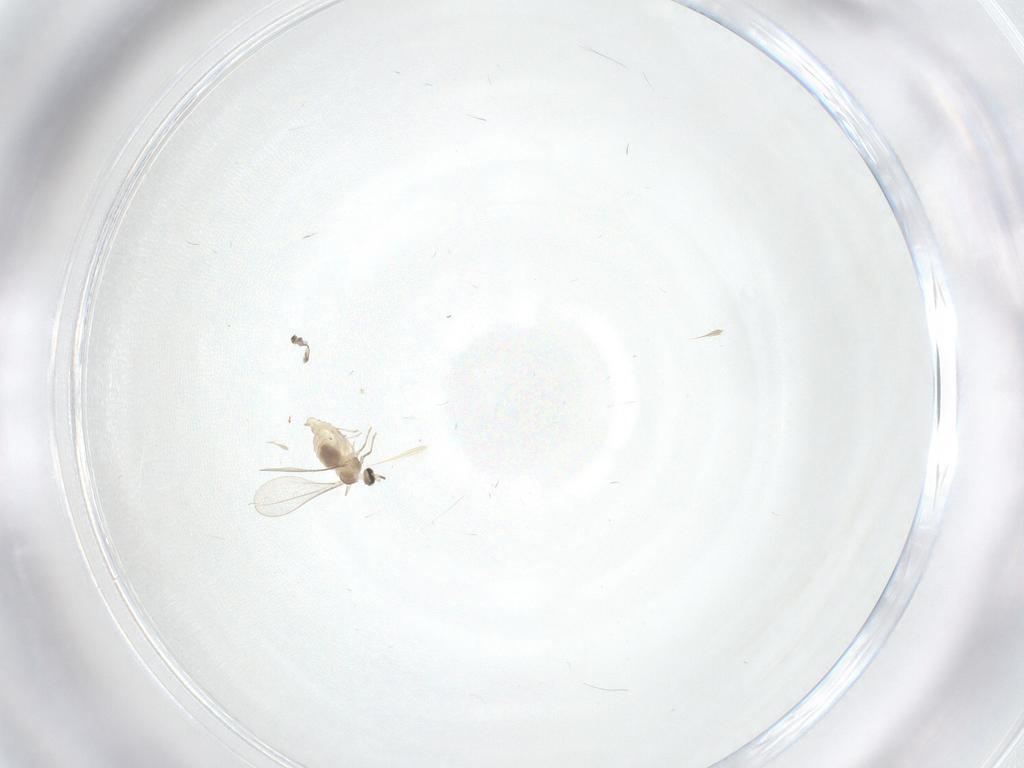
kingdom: Animalia
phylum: Arthropoda
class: Insecta
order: Diptera
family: Cecidomyiidae
